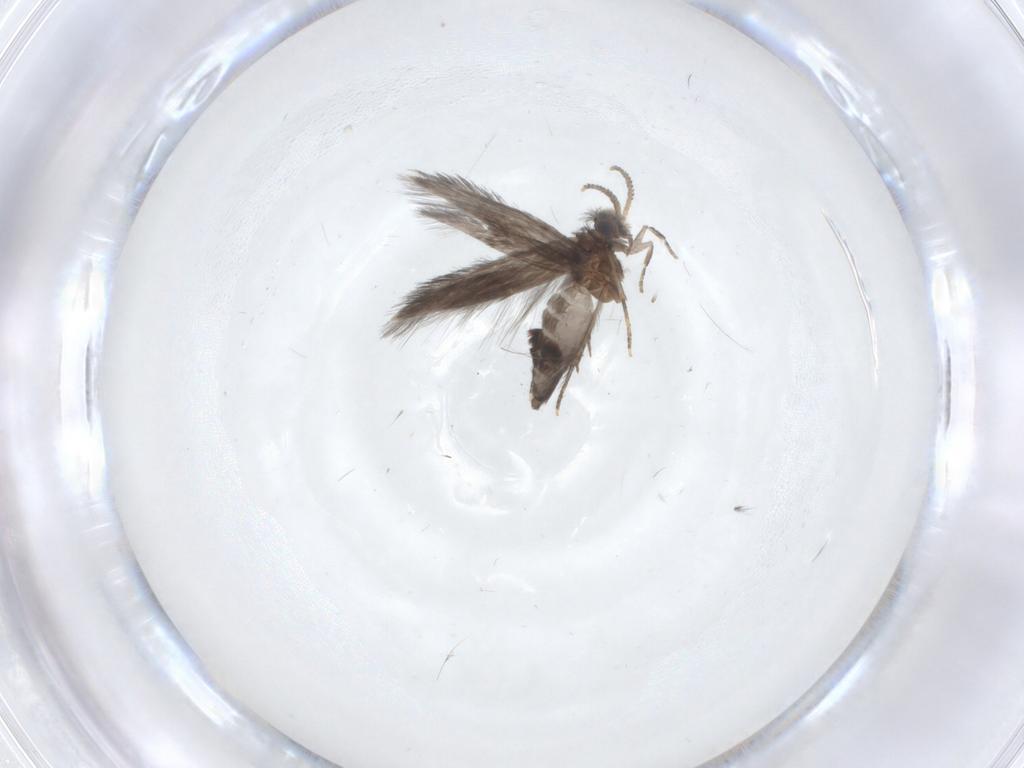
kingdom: Animalia
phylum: Arthropoda
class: Insecta
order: Trichoptera
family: Hydroptilidae
